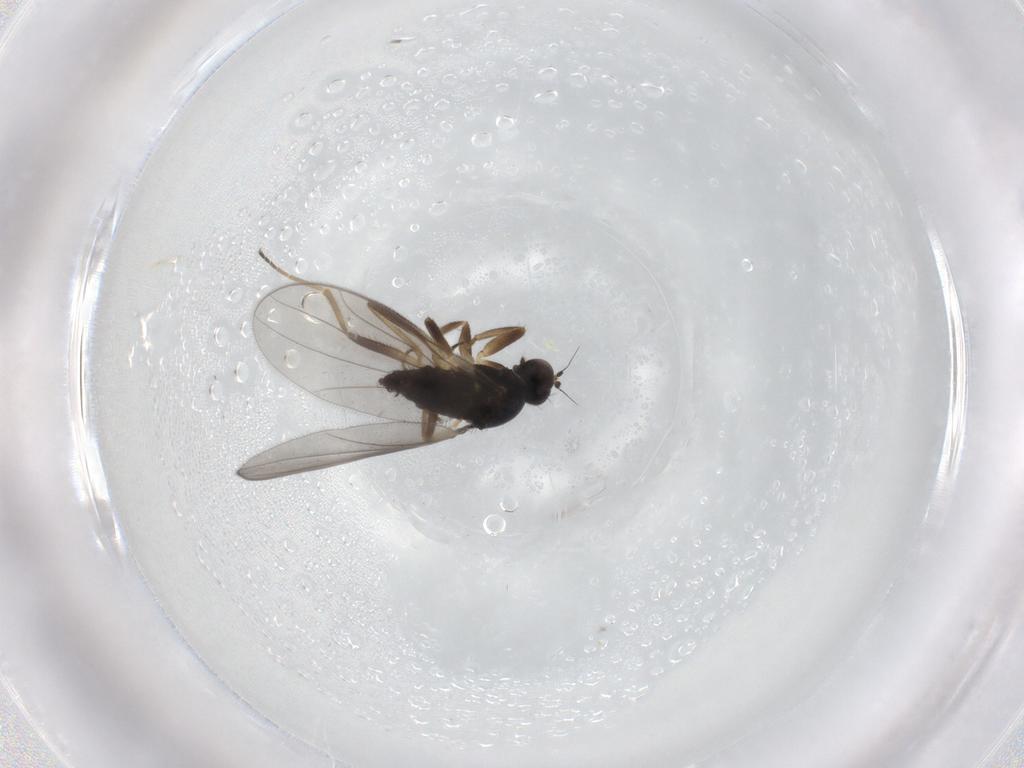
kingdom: Animalia
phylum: Arthropoda
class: Insecta
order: Diptera
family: Hybotidae
